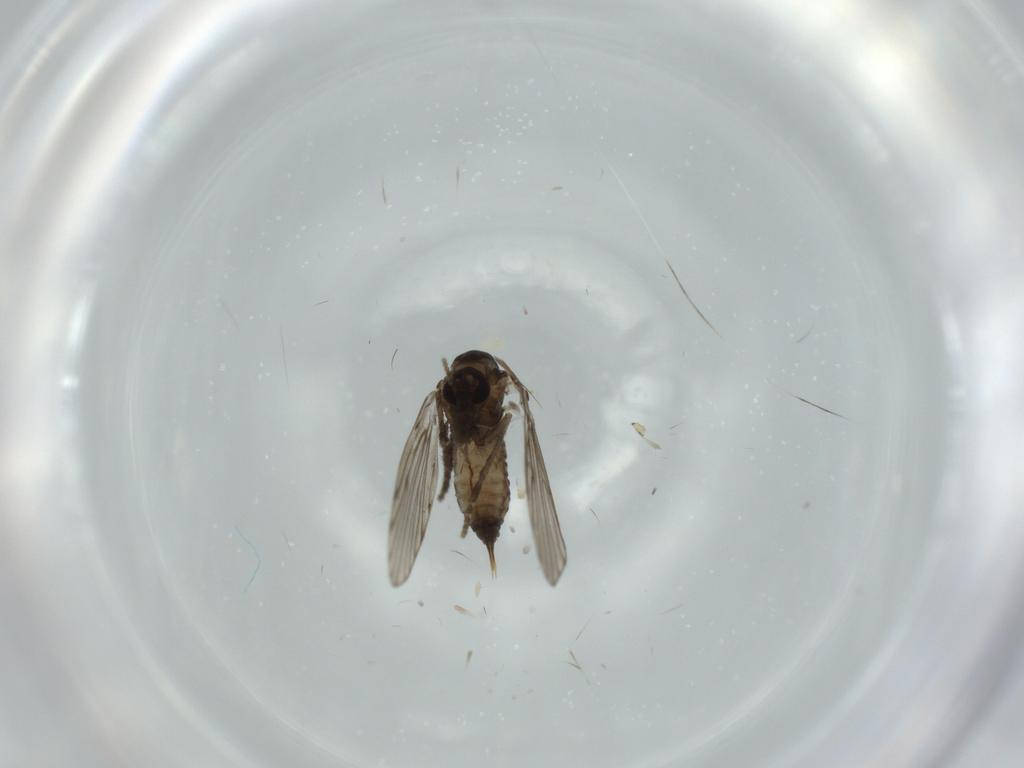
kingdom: Animalia
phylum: Arthropoda
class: Insecta
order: Diptera
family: Psychodidae
